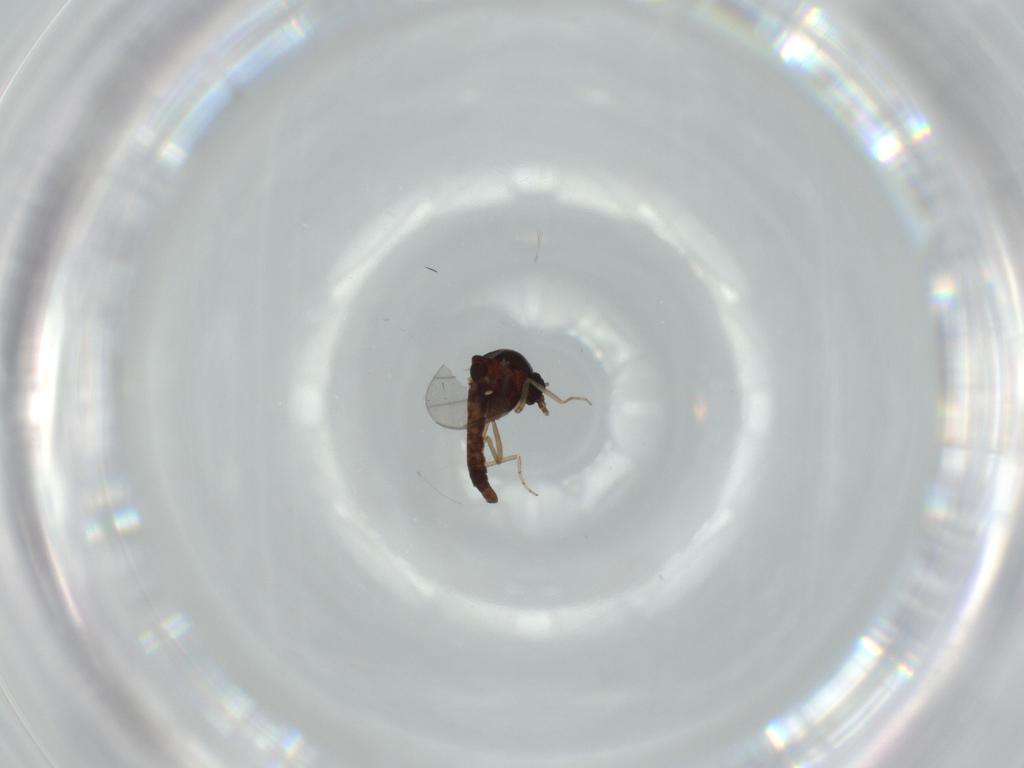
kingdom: Animalia
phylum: Arthropoda
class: Insecta
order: Diptera
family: Ceratopogonidae
